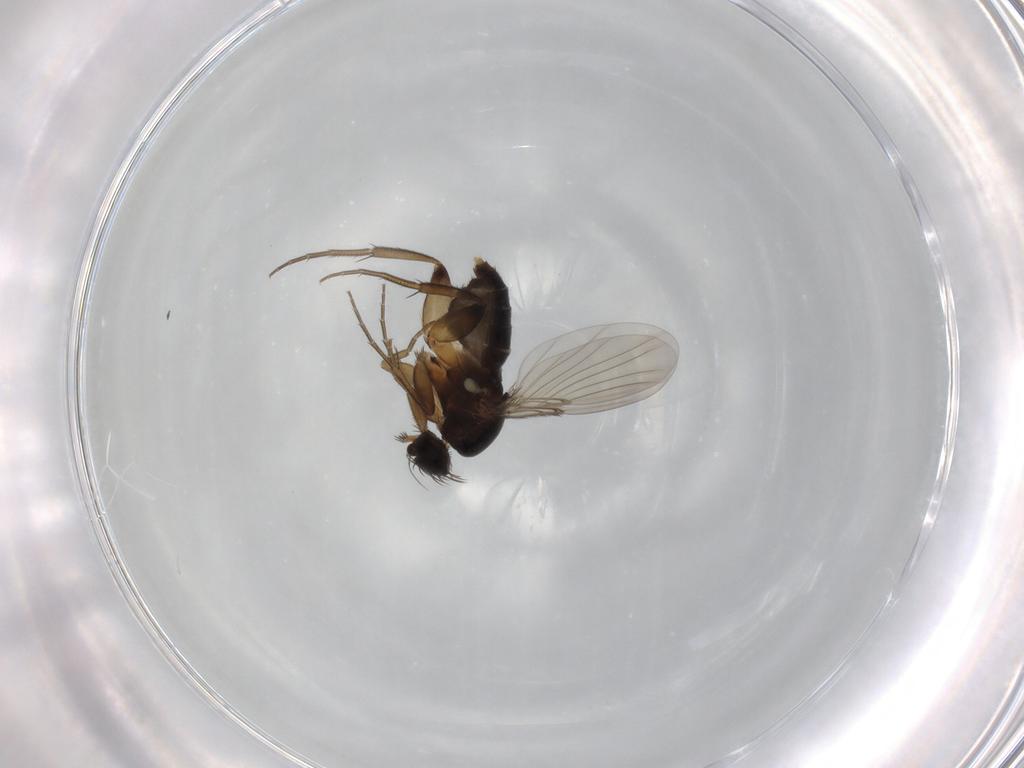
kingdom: Animalia
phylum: Arthropoda
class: Insecta
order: Diptera
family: Phoridae
